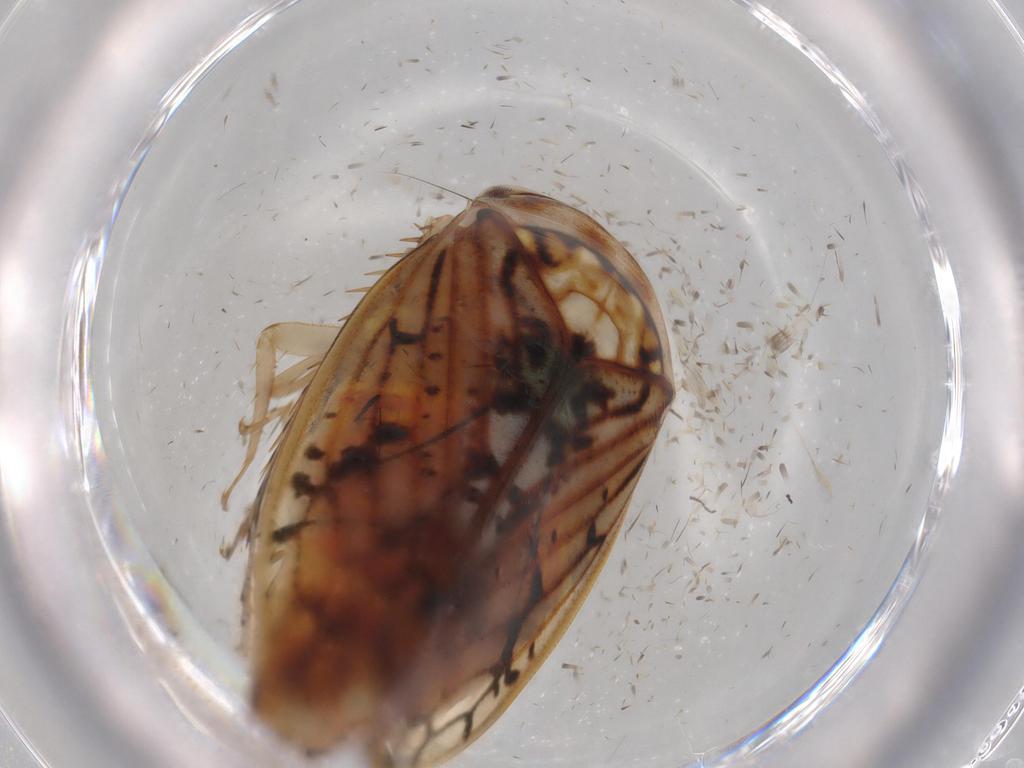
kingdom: Animalia
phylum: Arthropoda
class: Insecta
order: Hemiptera
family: Cicadellidae
